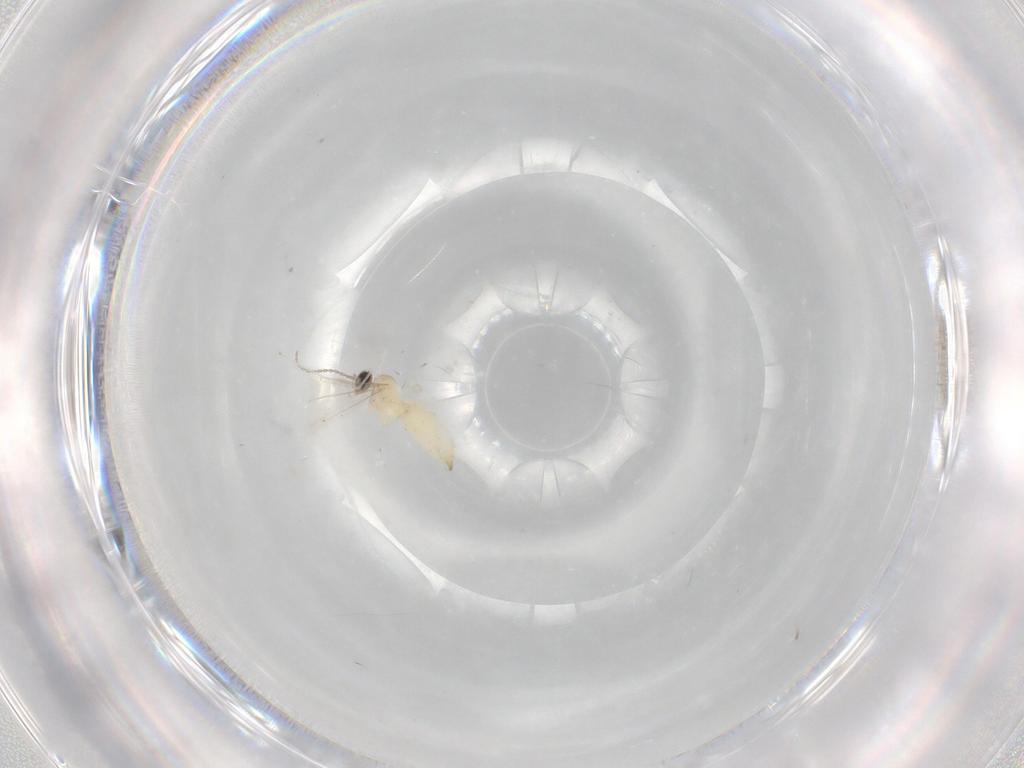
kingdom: Animalia
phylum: Arthropoda
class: Insecta
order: Diptera
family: Cecidomyiidae
